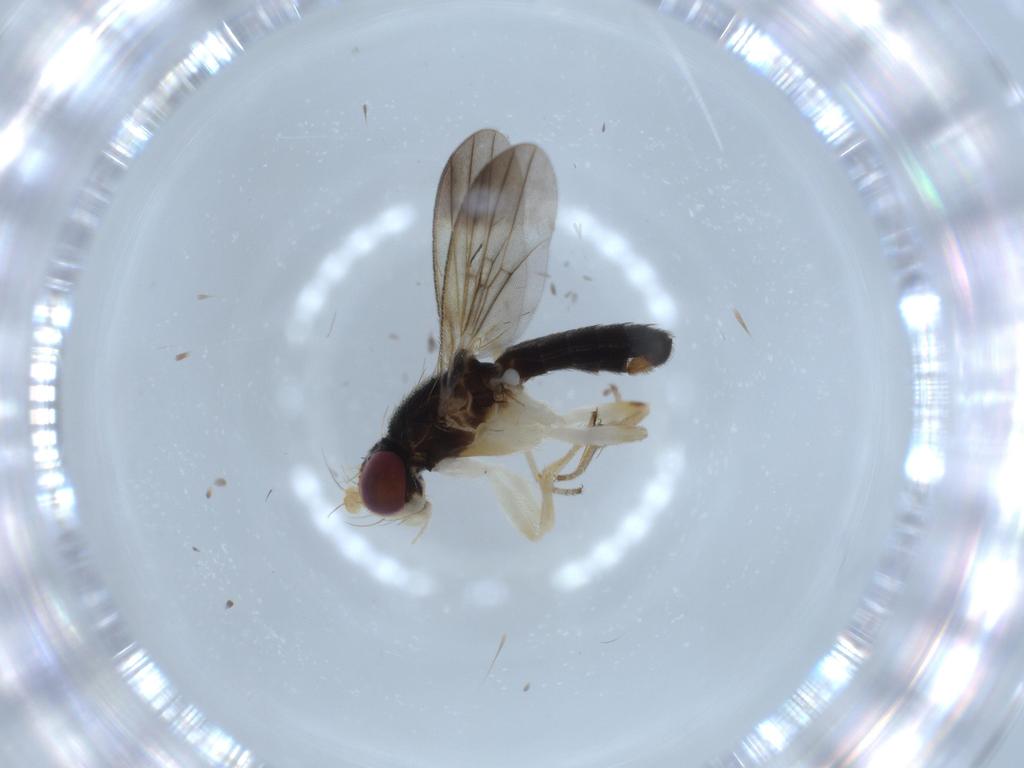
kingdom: Animalia
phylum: Arthropoda
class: Insecta
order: Diptera
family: Clusiidae
